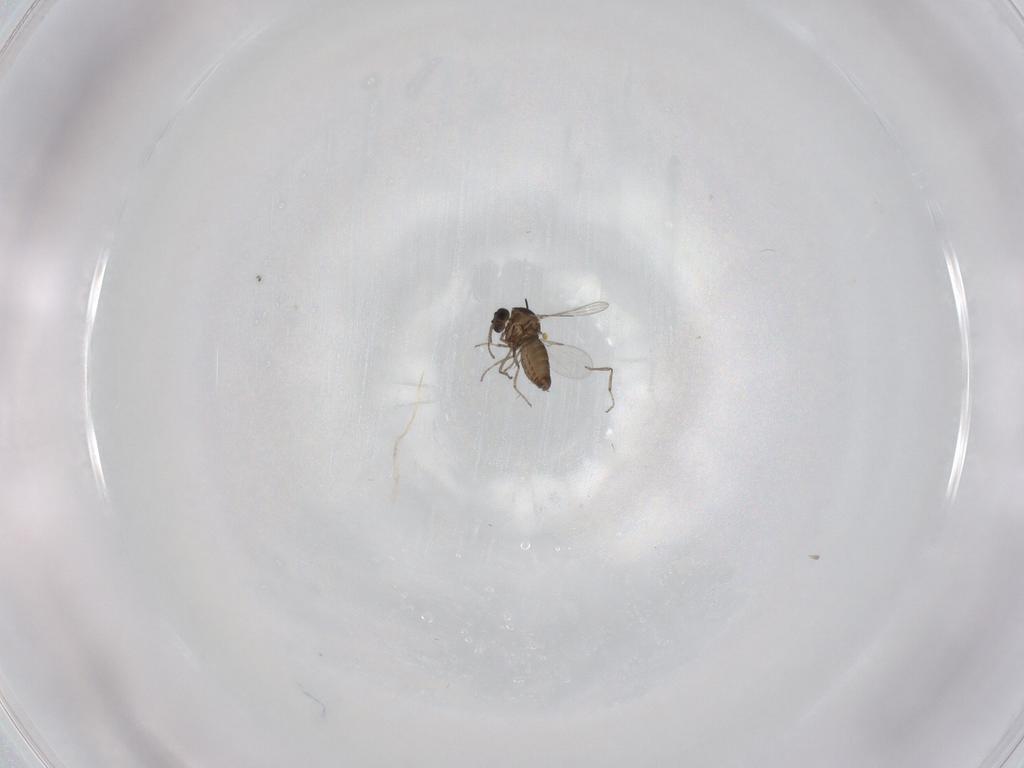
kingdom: Animalia
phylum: Arthropoda
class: Insecta
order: Diptera
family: Ceratopogonidae
